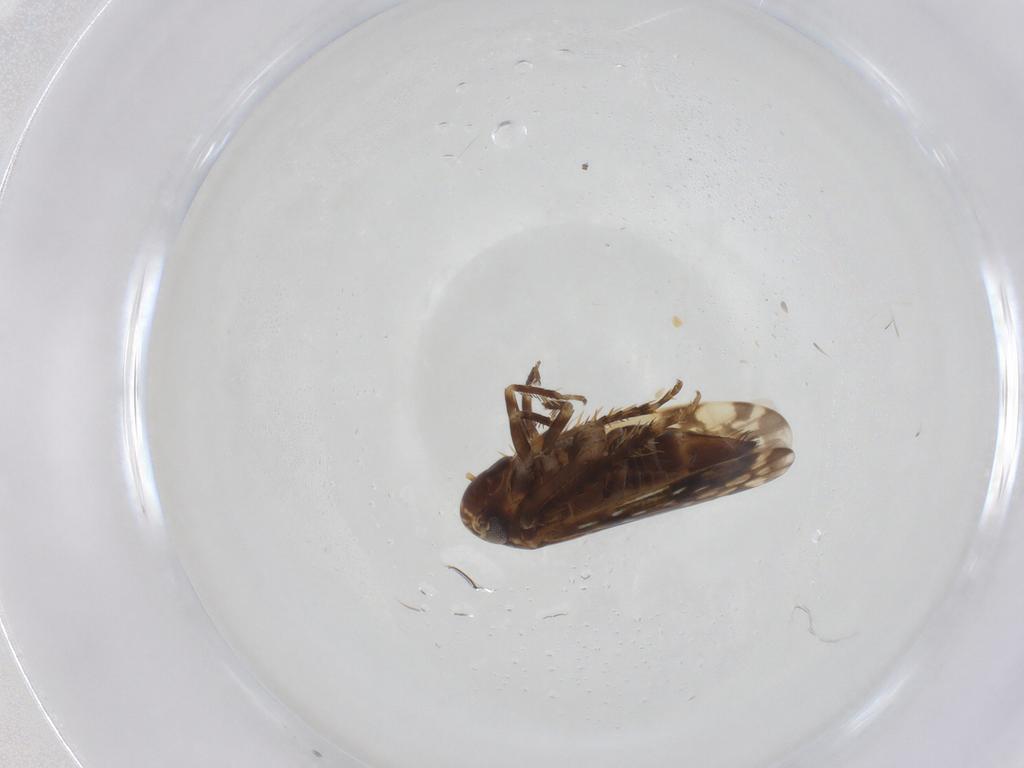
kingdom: Animalia
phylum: Arthropoda
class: Insecta
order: Hemiptera
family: Cicadellidae
